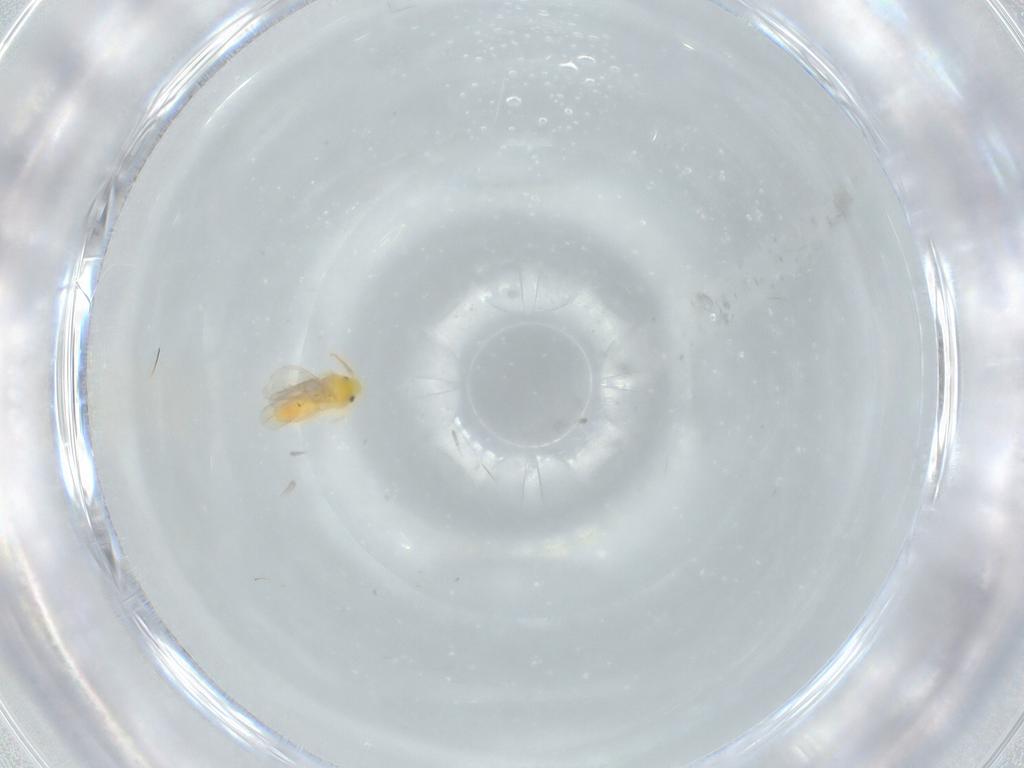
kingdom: Animalia
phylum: Arthropoda
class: Insecta
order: Hemiptera
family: Aleyrodidae
